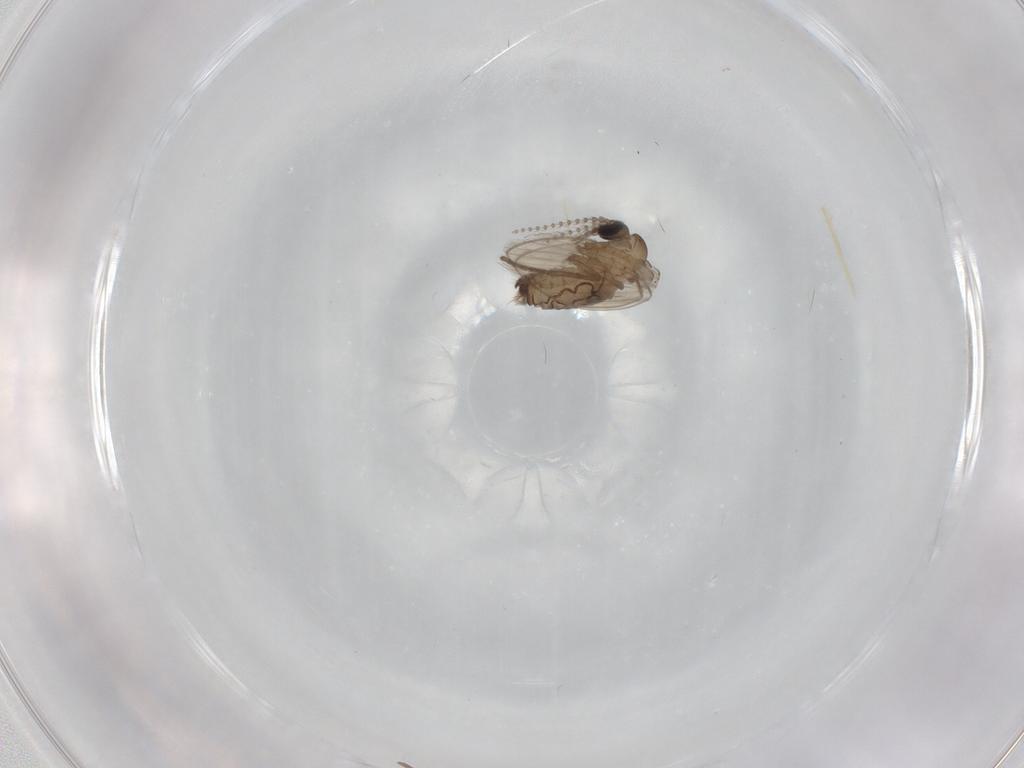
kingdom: Animalia
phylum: Arthropoda
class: Insecta
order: Diptera
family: Psychodidae
